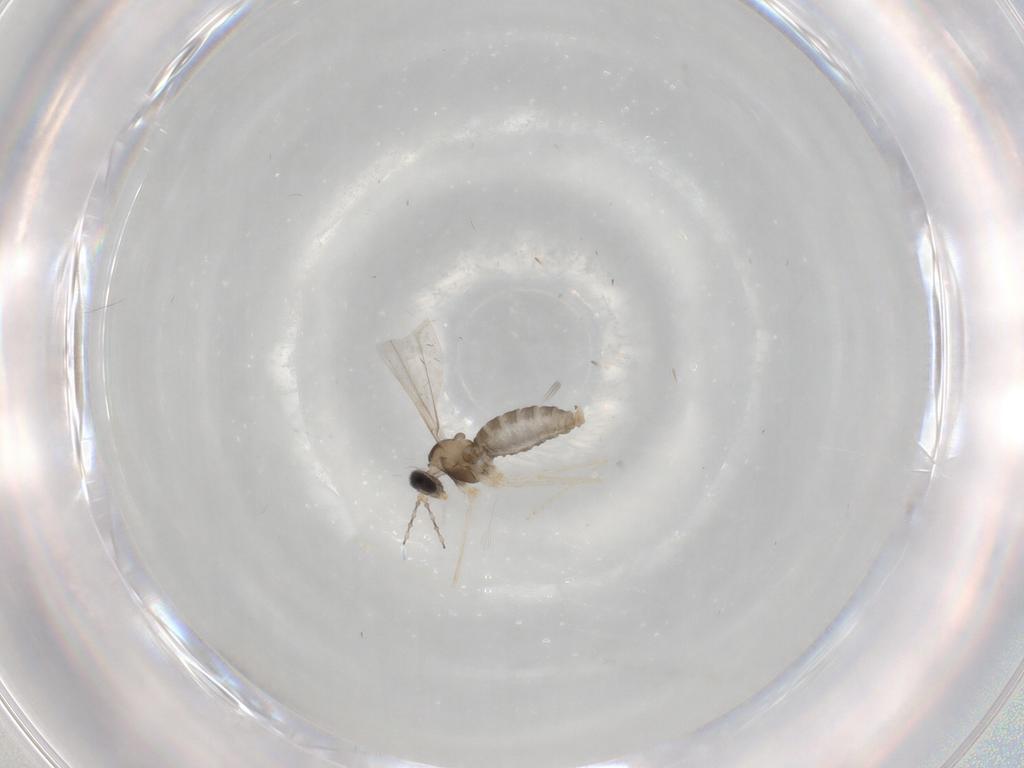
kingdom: Animalia
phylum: Arthropoda
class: Insecta
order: Diptera
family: Cecidomyiidae
